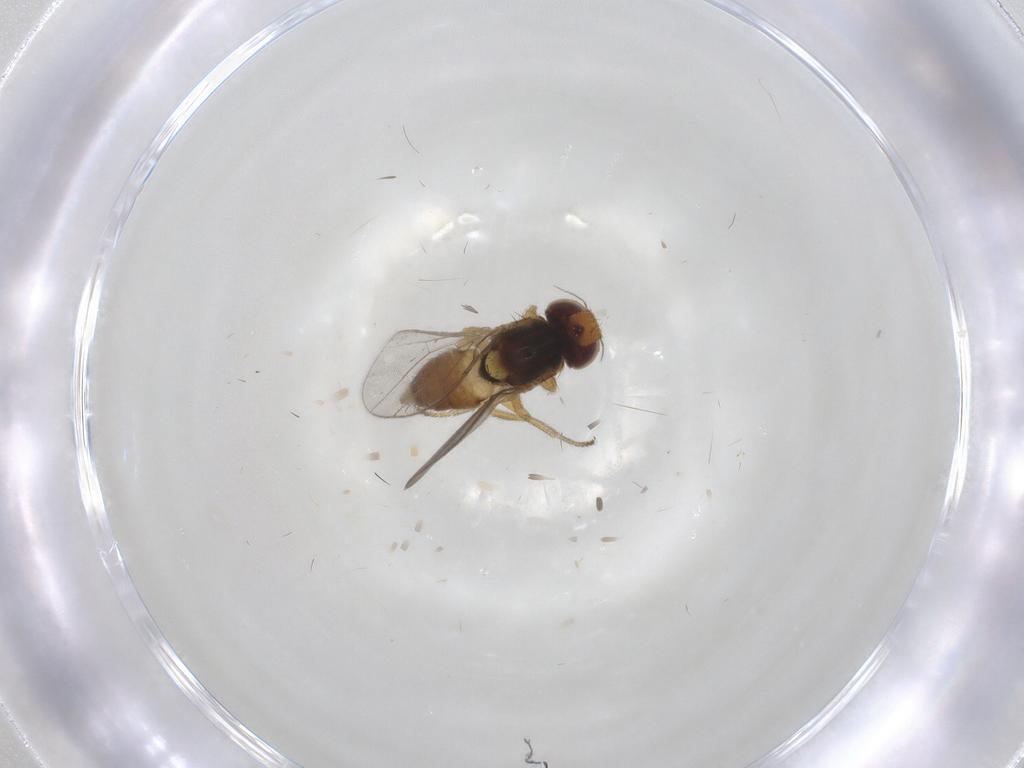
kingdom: Animalia
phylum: Arthropoda
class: Insecta
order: Diptera
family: Chloropidae
